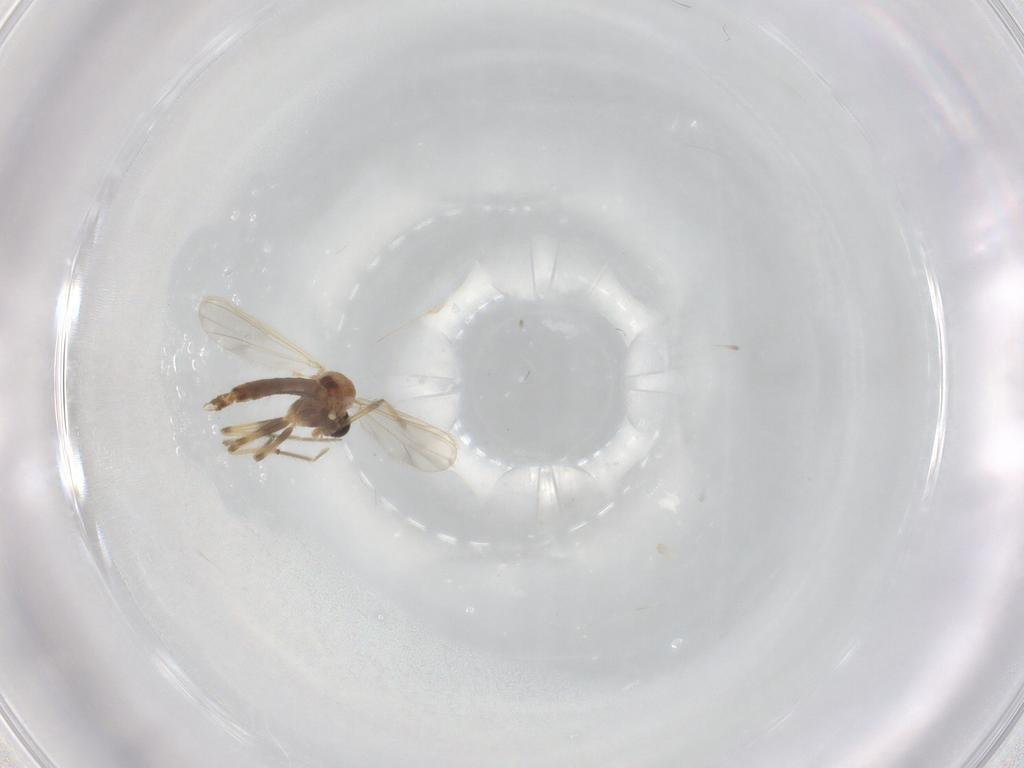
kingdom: Animalia
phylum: Arthropoda
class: Insecta
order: Diptera
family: Chironomidae
